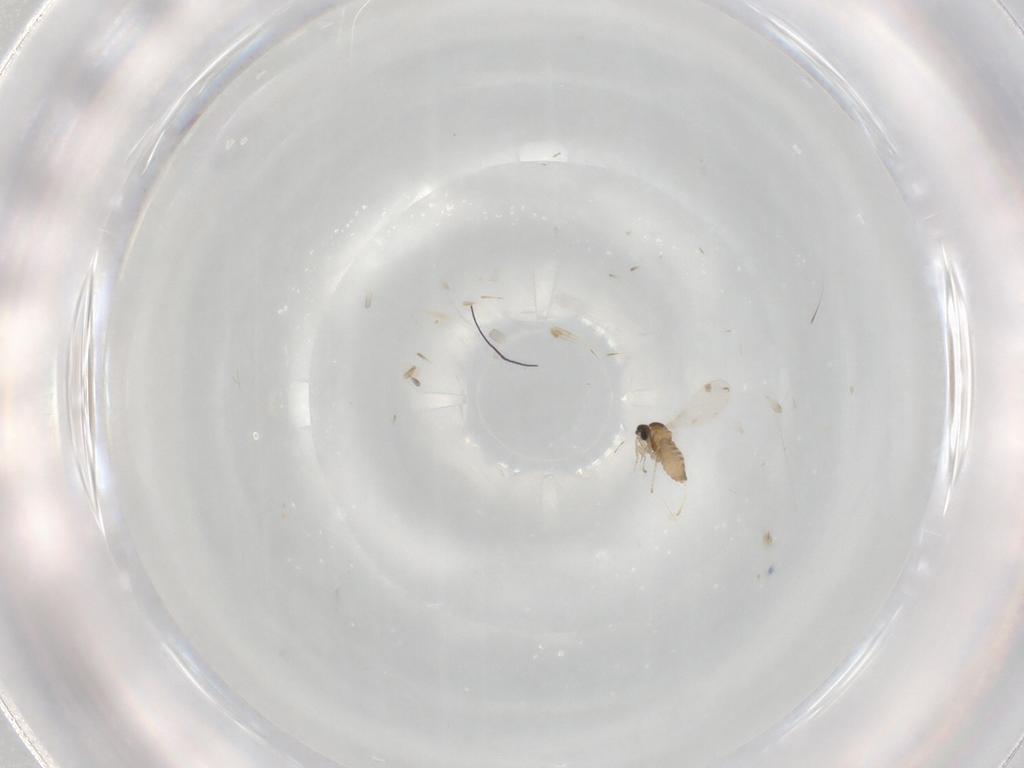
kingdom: Animalia
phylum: Arthropoda
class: Insecta
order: Diptera
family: Cecidomyiidae
